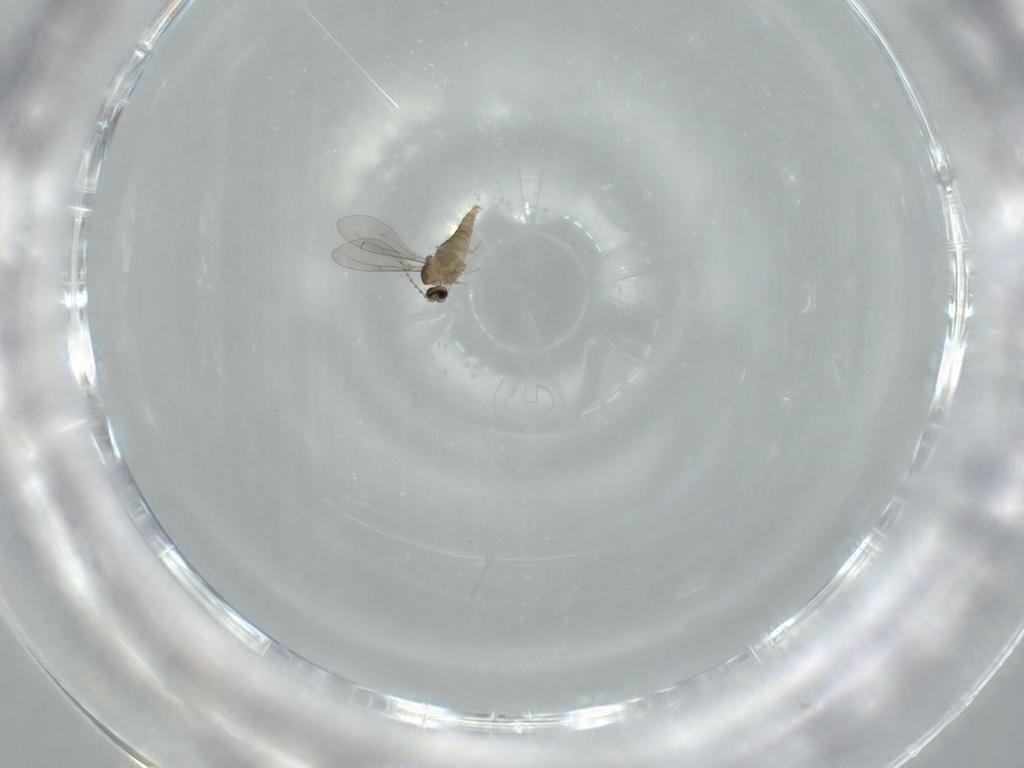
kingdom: Animalia
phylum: Arthropoda
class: Insecta
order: Diptera
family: Cecidomyiidae
